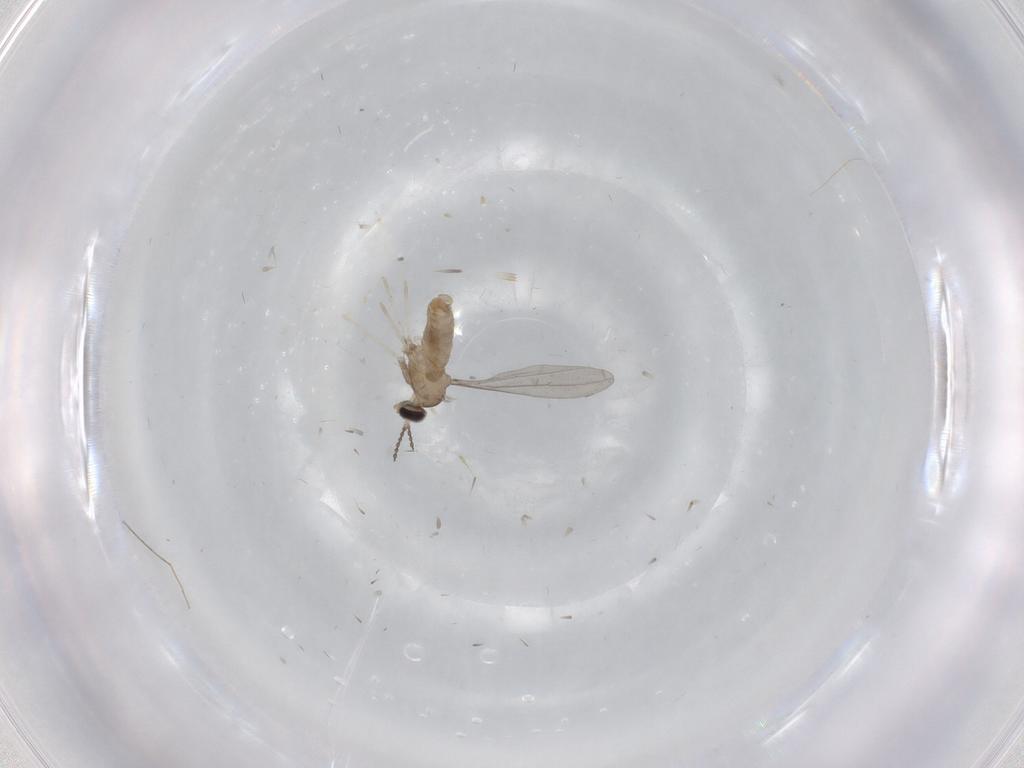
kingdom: Animalia
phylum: Arthropoda
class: Insecta
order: Diptera
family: Cecidomyiidae
